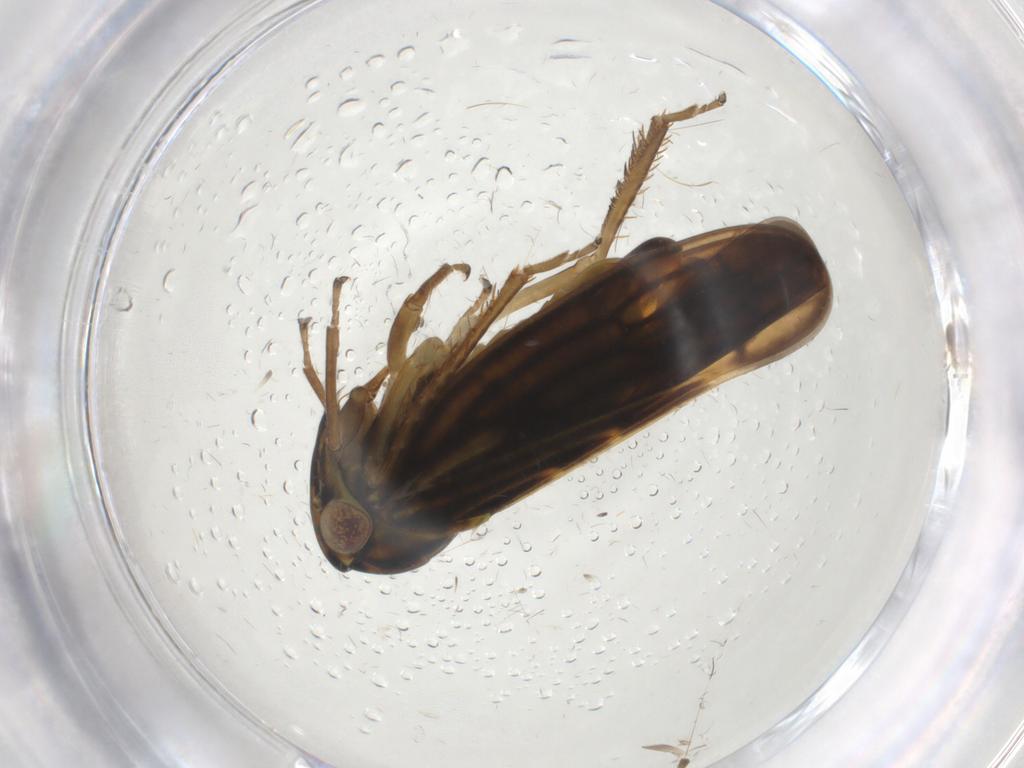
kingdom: Animalia
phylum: Arthropoda
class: Insecta
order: Hemiptera
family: Cicadellidae
